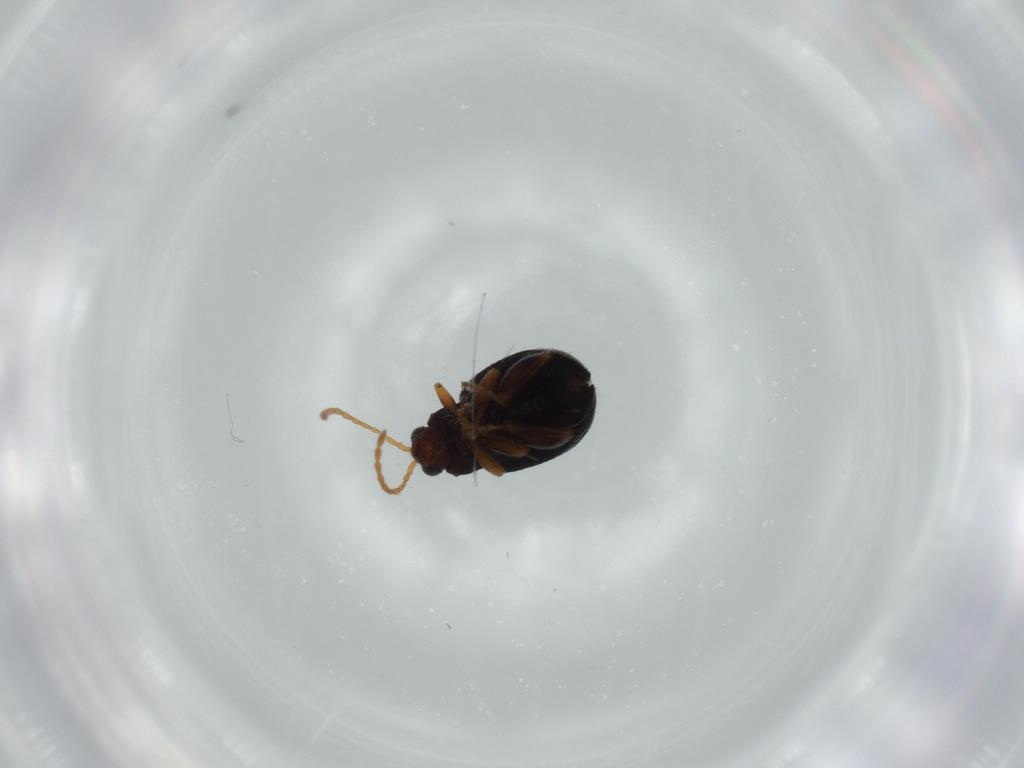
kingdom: Animalia
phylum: Arthropoda
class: Insecta
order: Coleoptera
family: Chrysomelidae
